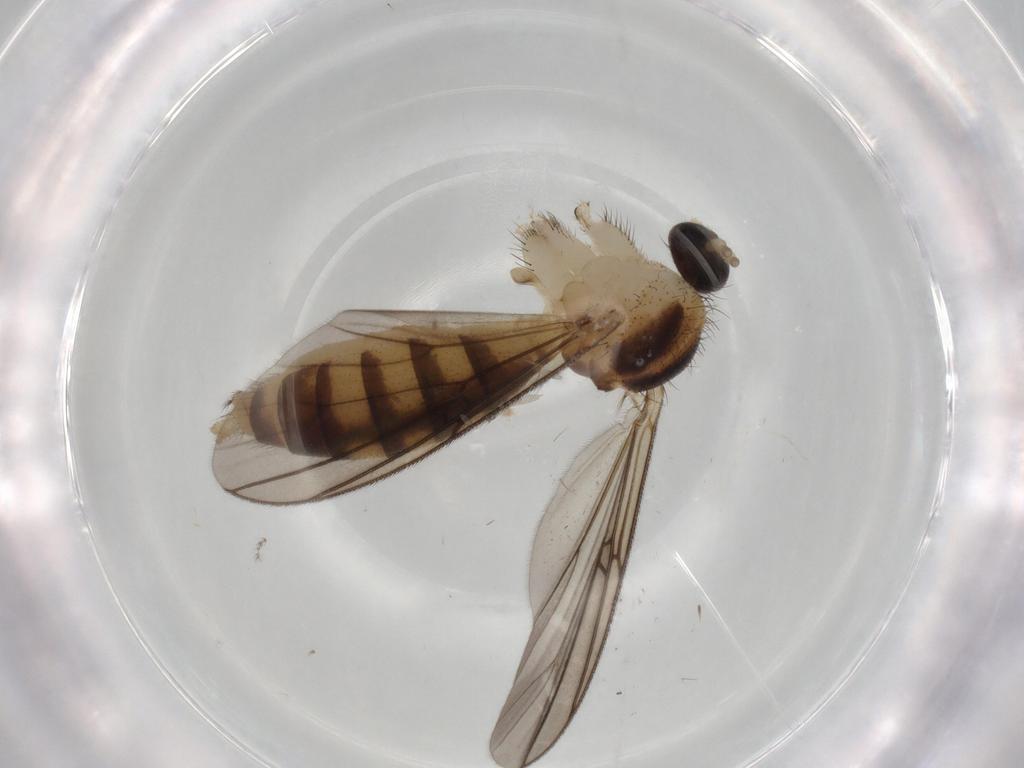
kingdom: Animalia
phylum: Arthropoda
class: Insecta
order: Diptera
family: Mycetophilidae
